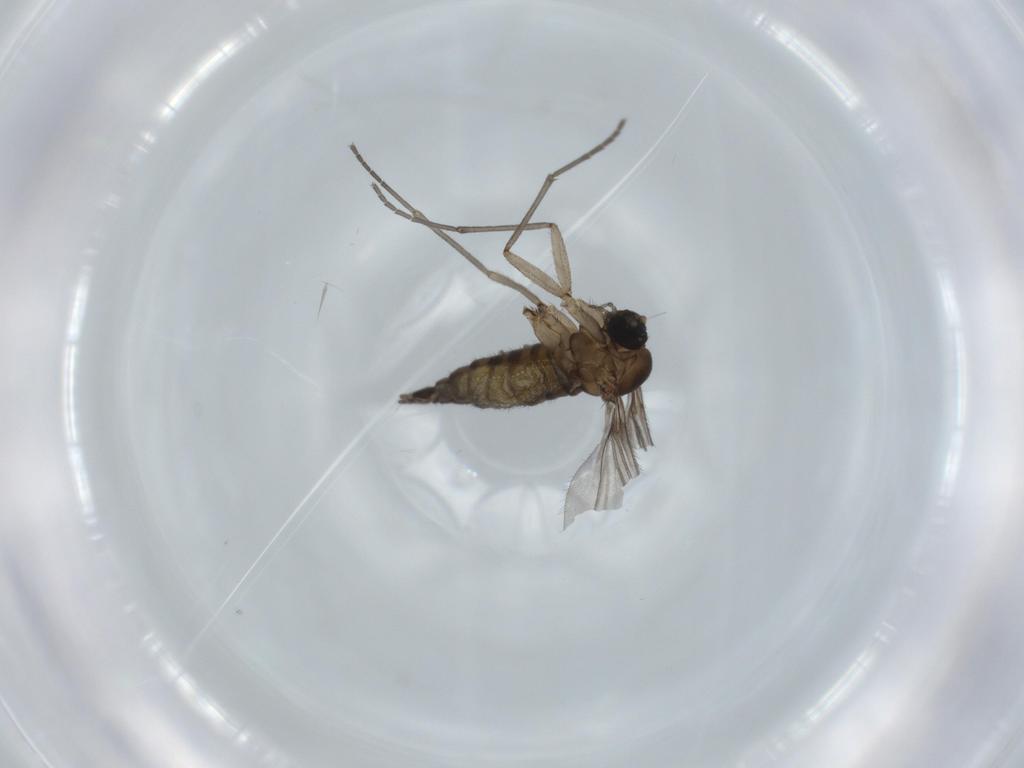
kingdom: Animalia
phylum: Arthropoda
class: Insecta
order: Diptera
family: Sciaridae
